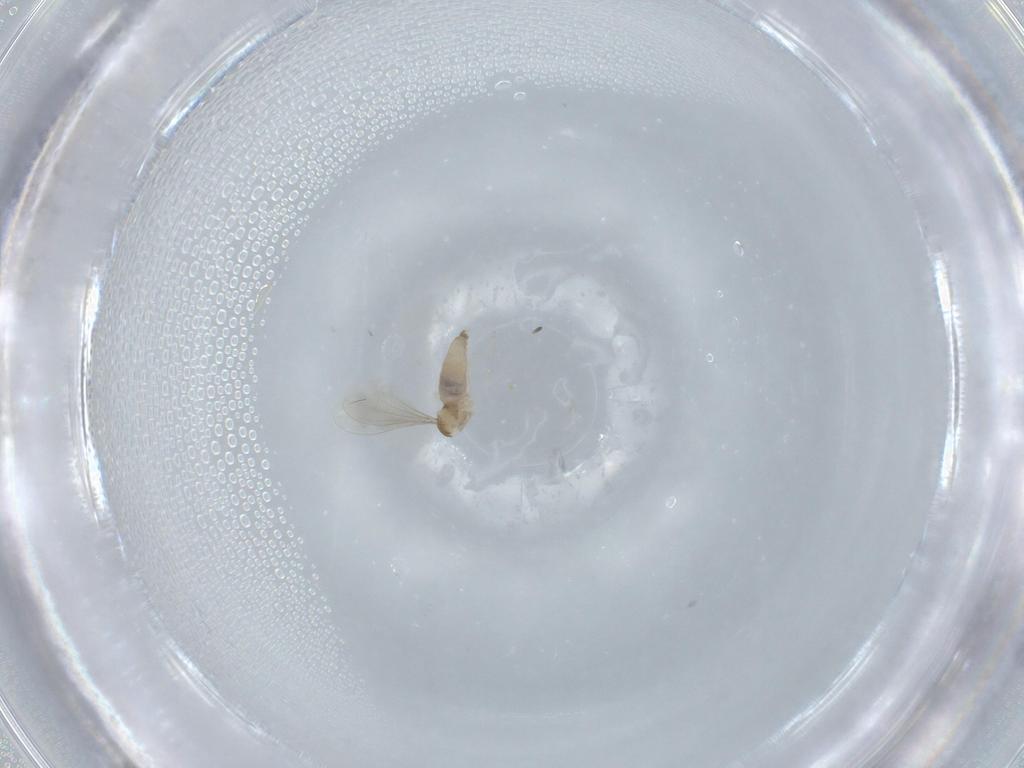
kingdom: Animalia
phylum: Arthropoda
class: Insecta
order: Diptera
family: Cecidomyiidae
